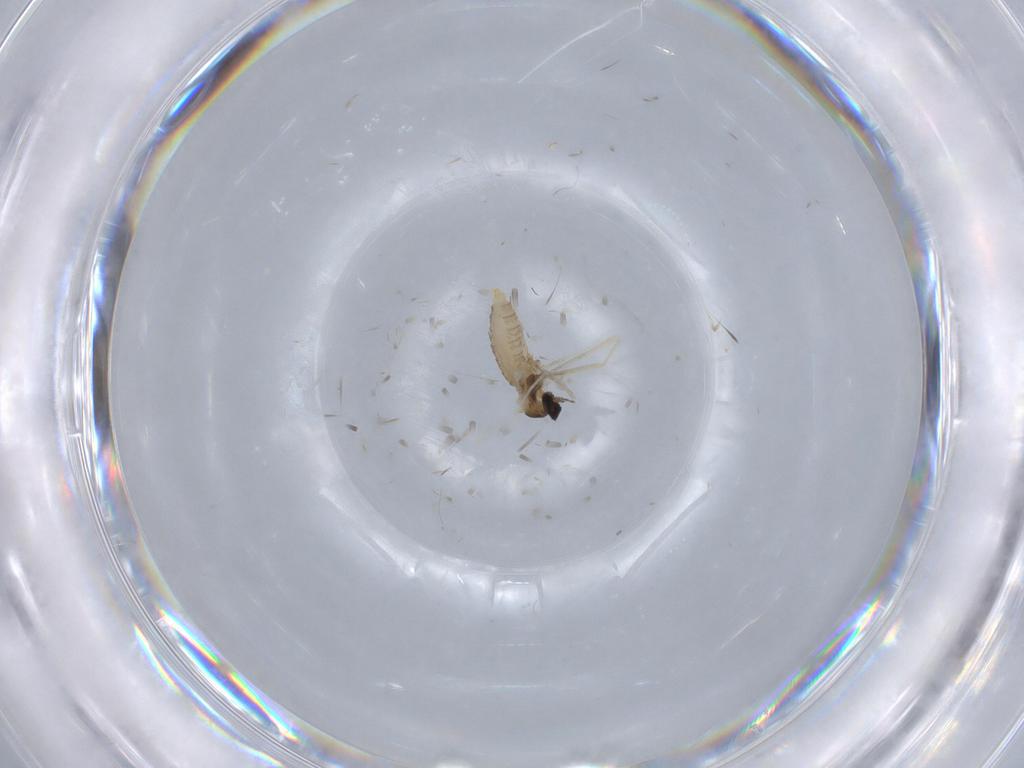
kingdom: Animalia
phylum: Arthropoda
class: Insecta
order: Diptera
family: Cecidomyiidae
